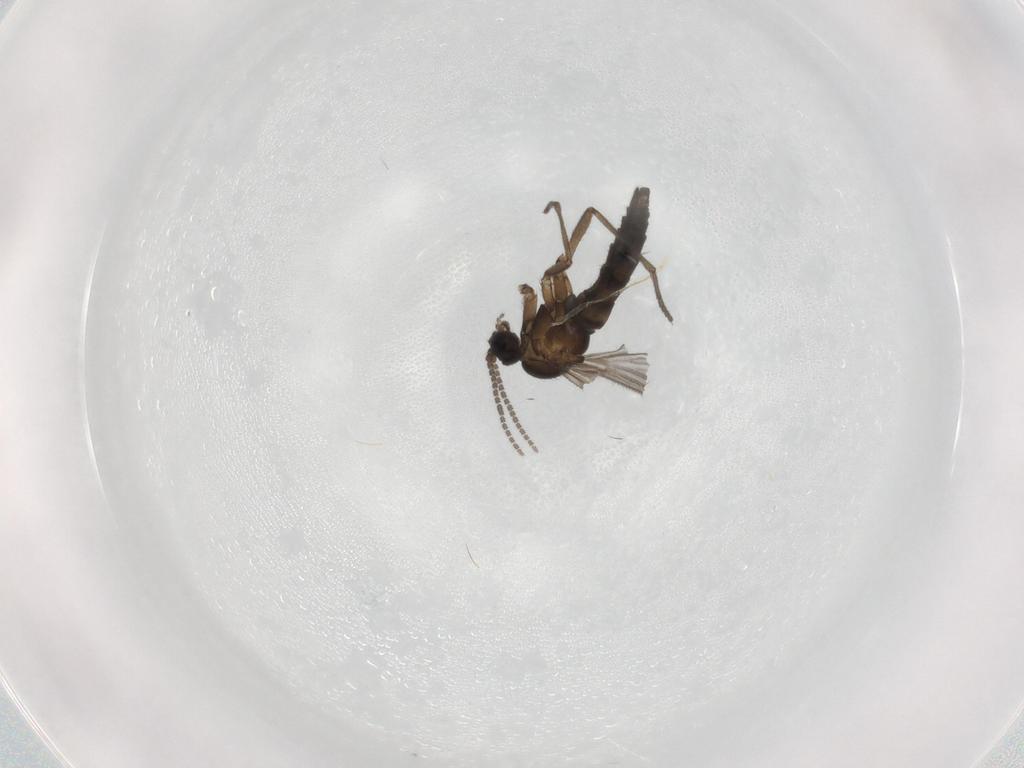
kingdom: Animalia
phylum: Arthropoda
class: Insecta
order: Diptera
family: Sciaridae
